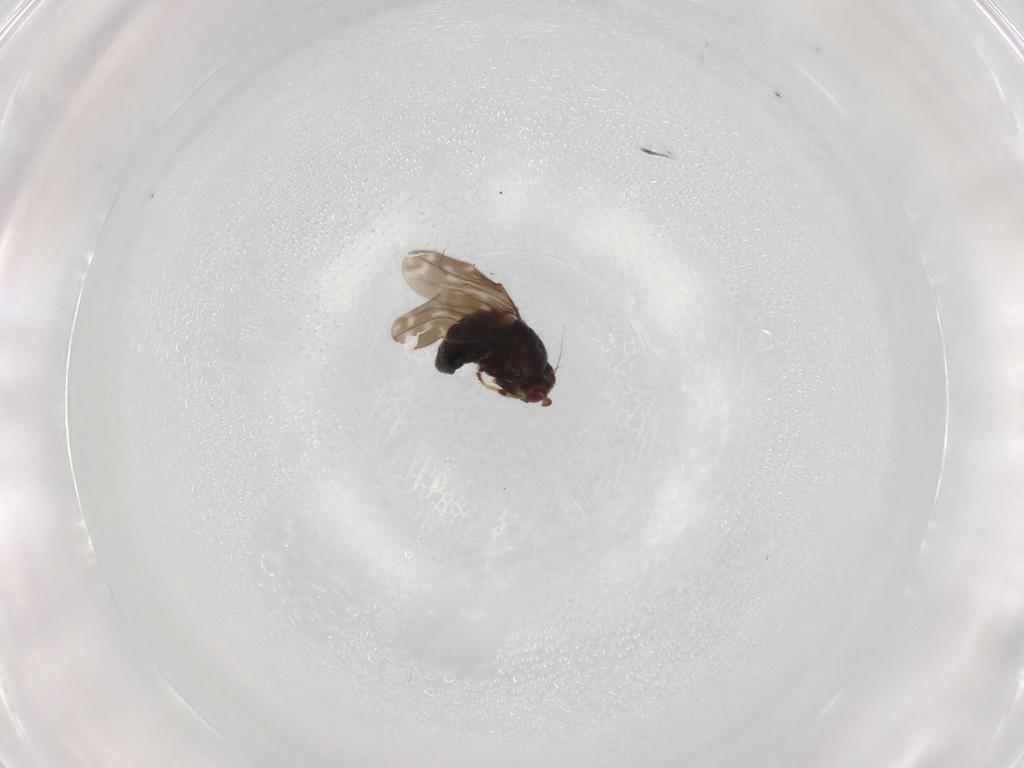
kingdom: Animalia
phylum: Arthropoda
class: Insecta
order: Diptera
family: Sphaeroceridae
